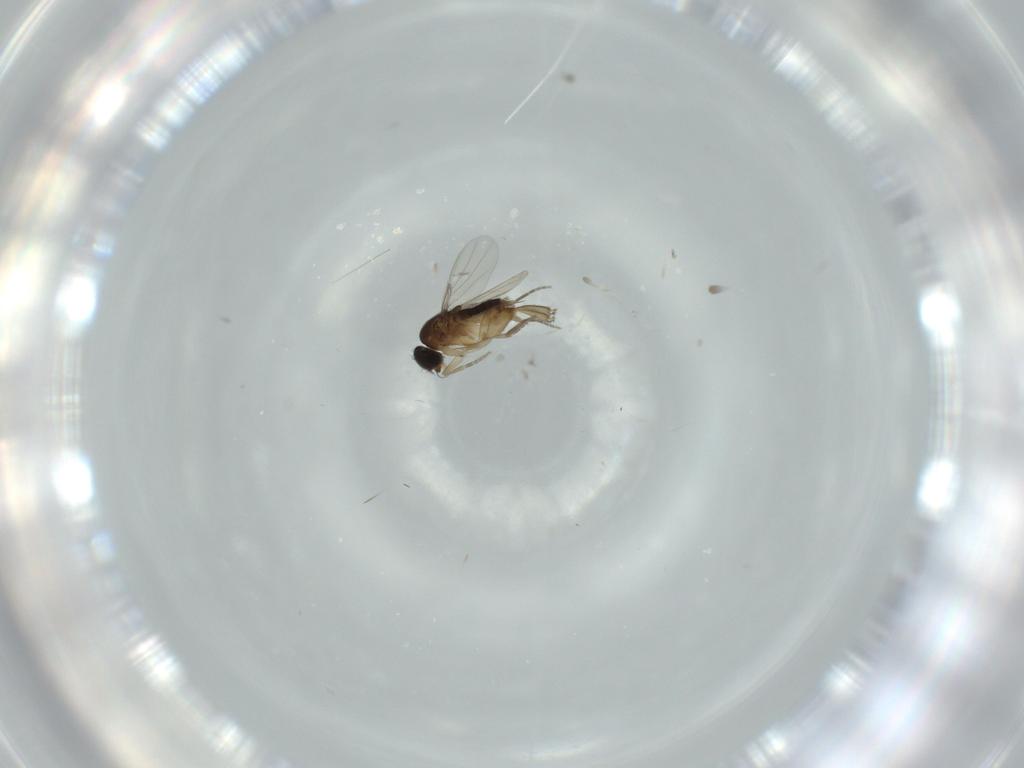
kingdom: Animalia
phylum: Arthropoda
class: Insecta
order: Diptera
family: Phoridae
